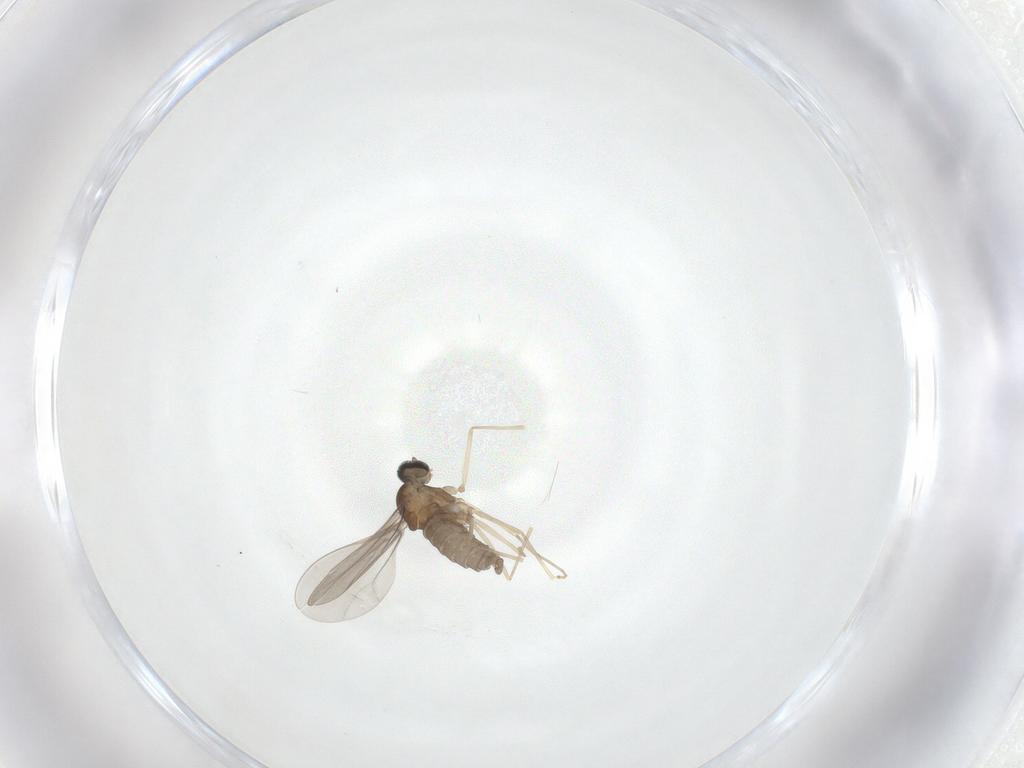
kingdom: Animalia
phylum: Arthropoda
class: Insecta
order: Diptera
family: Cecidomyiidae
